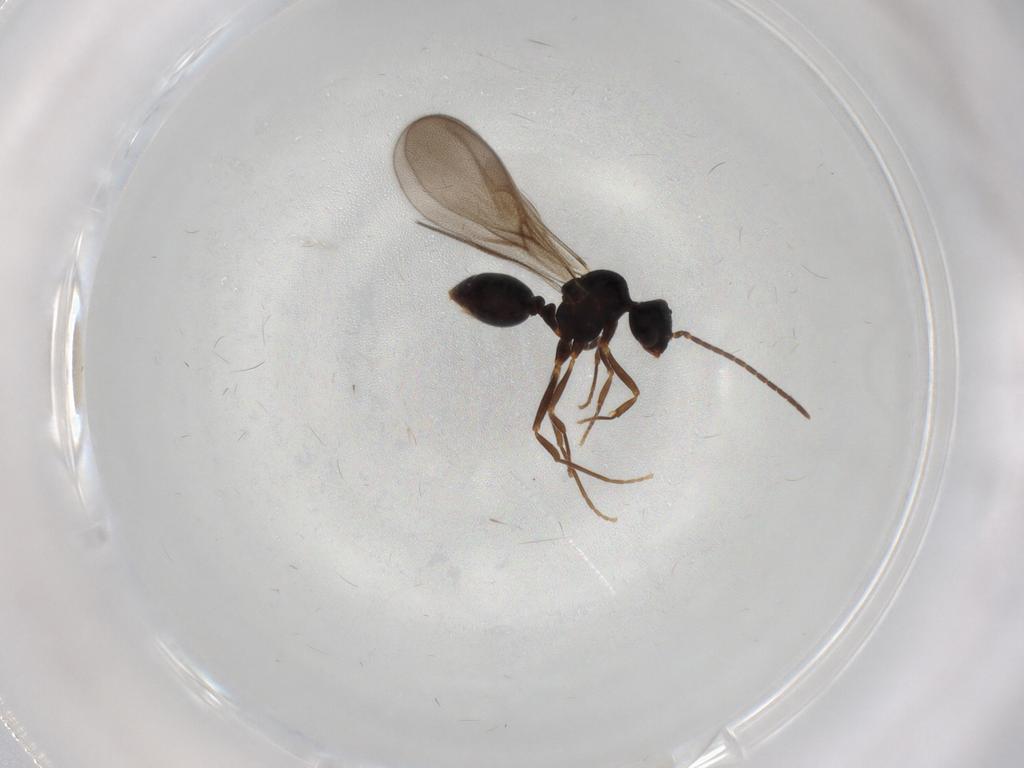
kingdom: Animalia
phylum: Arthropoda
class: Insecta
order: Hymenoptera
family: Formicidae
